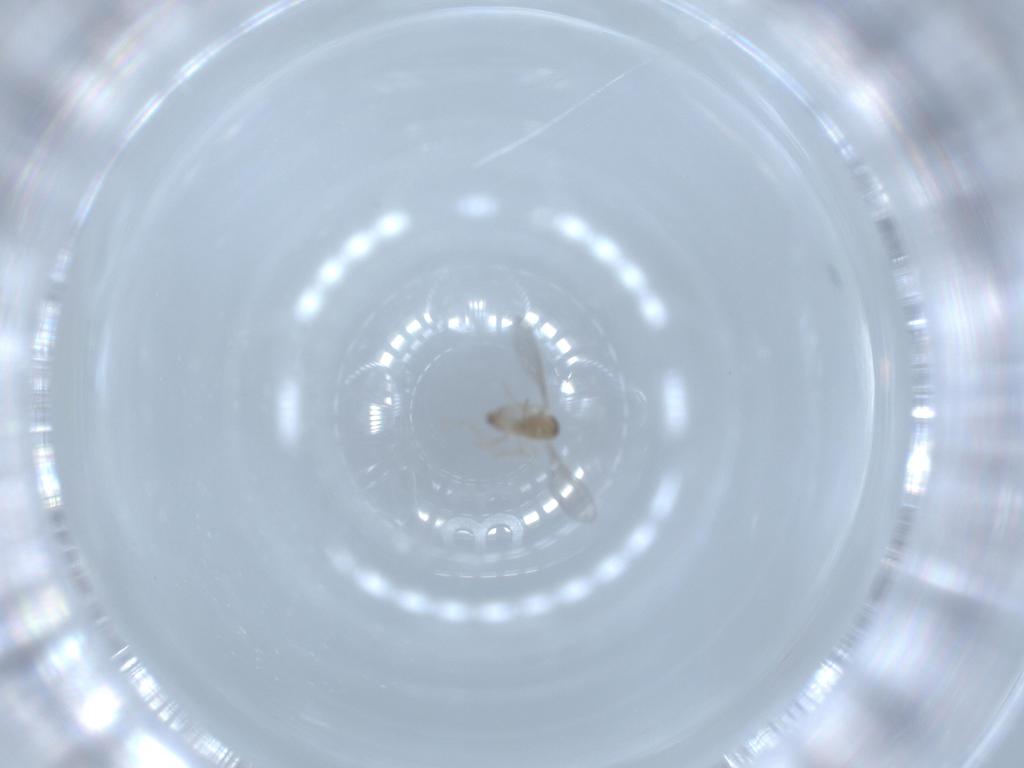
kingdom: Animalia
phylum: Arthropoda
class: Insecta
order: Diptera
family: Cecidomyiidae
